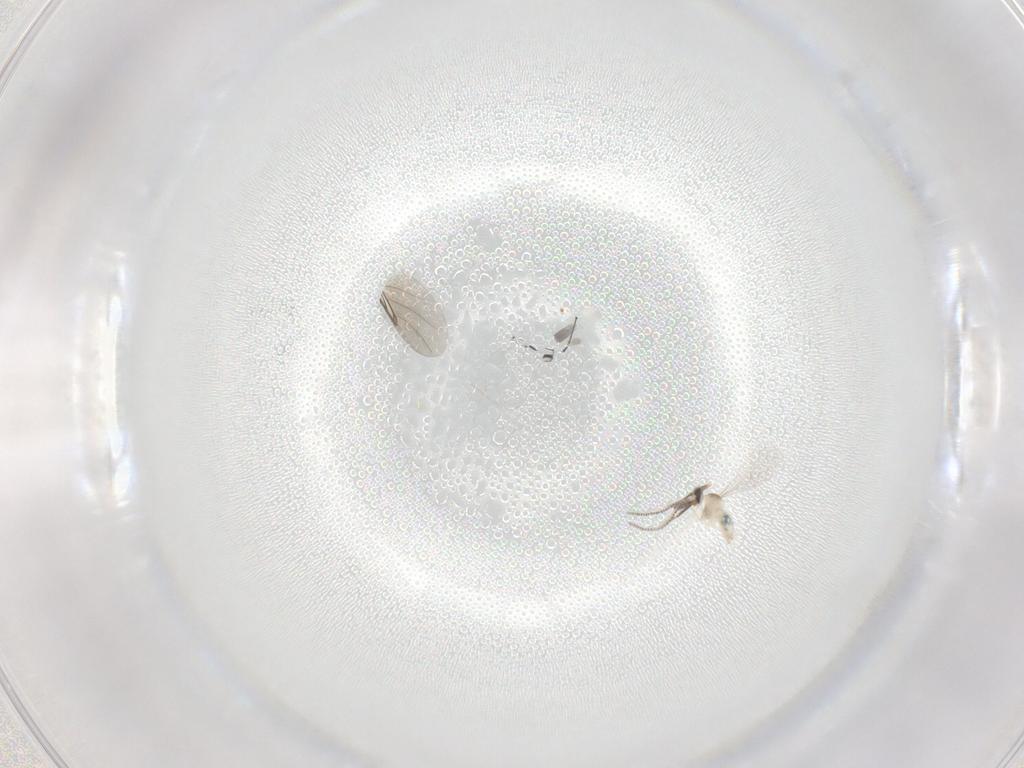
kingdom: Animalia
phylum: Arthropoda
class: Insecta
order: Diptera
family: Cecidomyiidae
